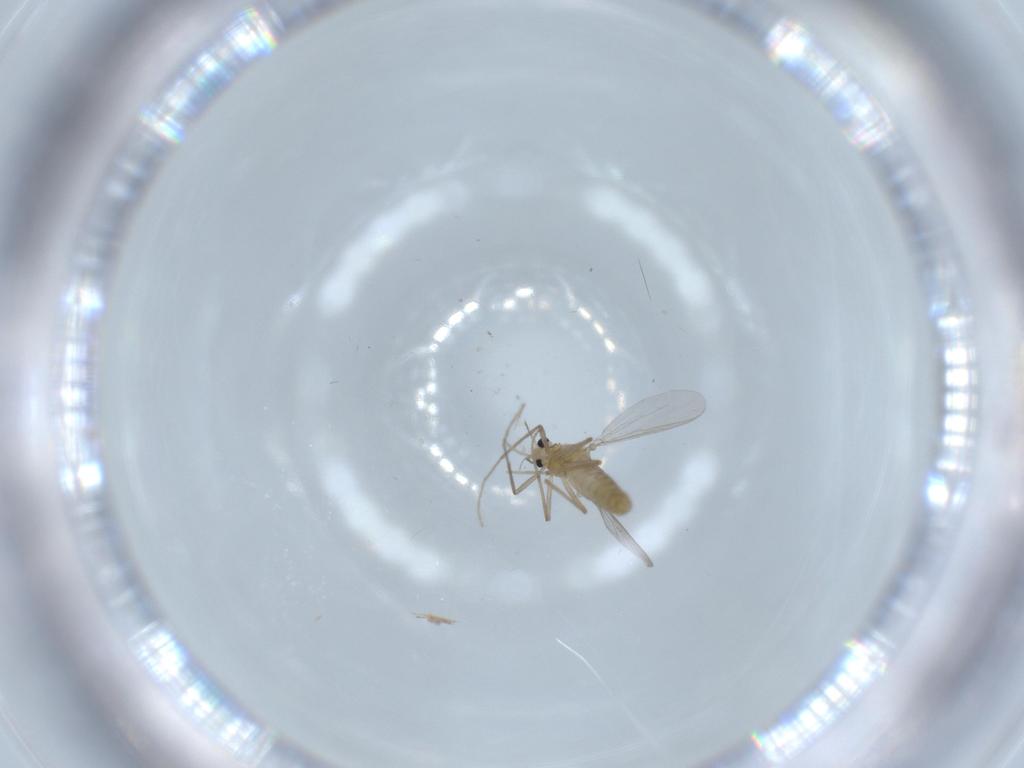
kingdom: Animalia
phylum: Arthropoda
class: Insecta
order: Diptera
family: Chironomidae
